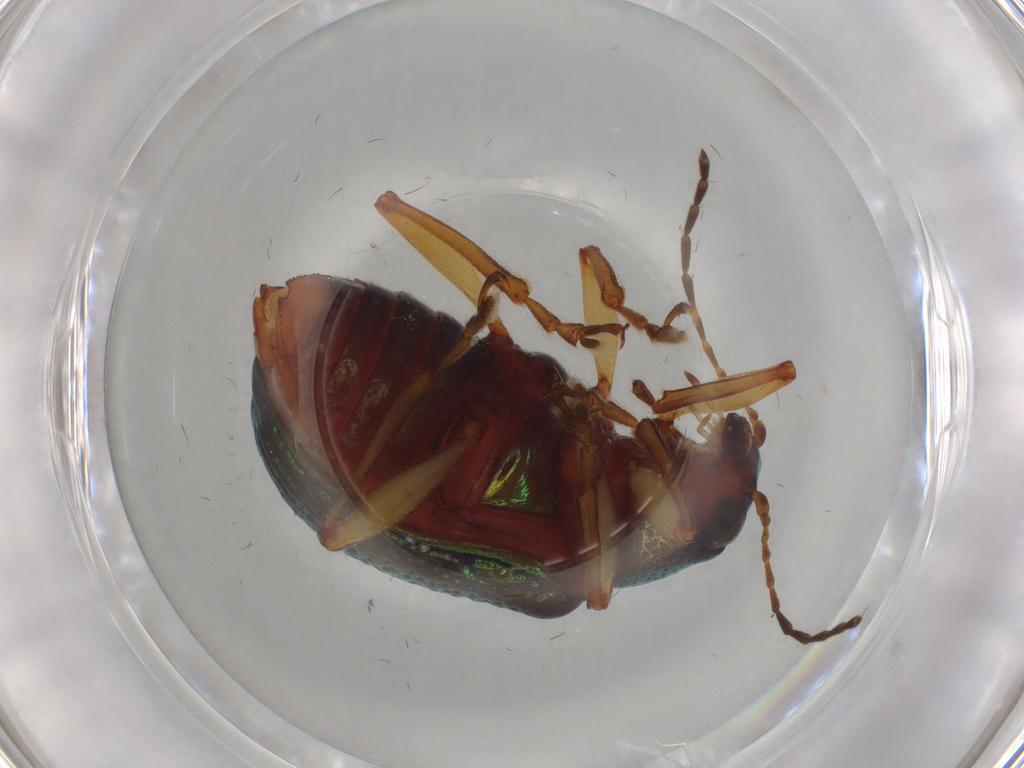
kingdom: Animalia
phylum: Arthropoda
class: Insecta
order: Coleoptera
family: Chrysomelidae
